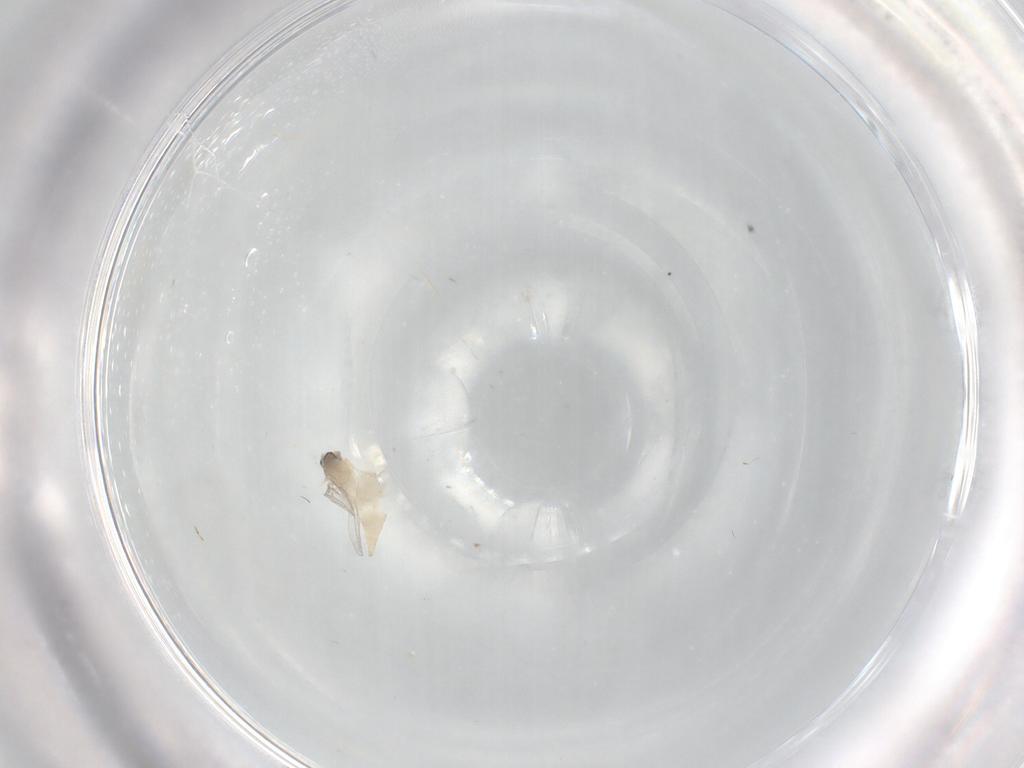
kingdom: Animalia
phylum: Arthropoda
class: Insecta
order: Diptera
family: Cecidomyiidae
